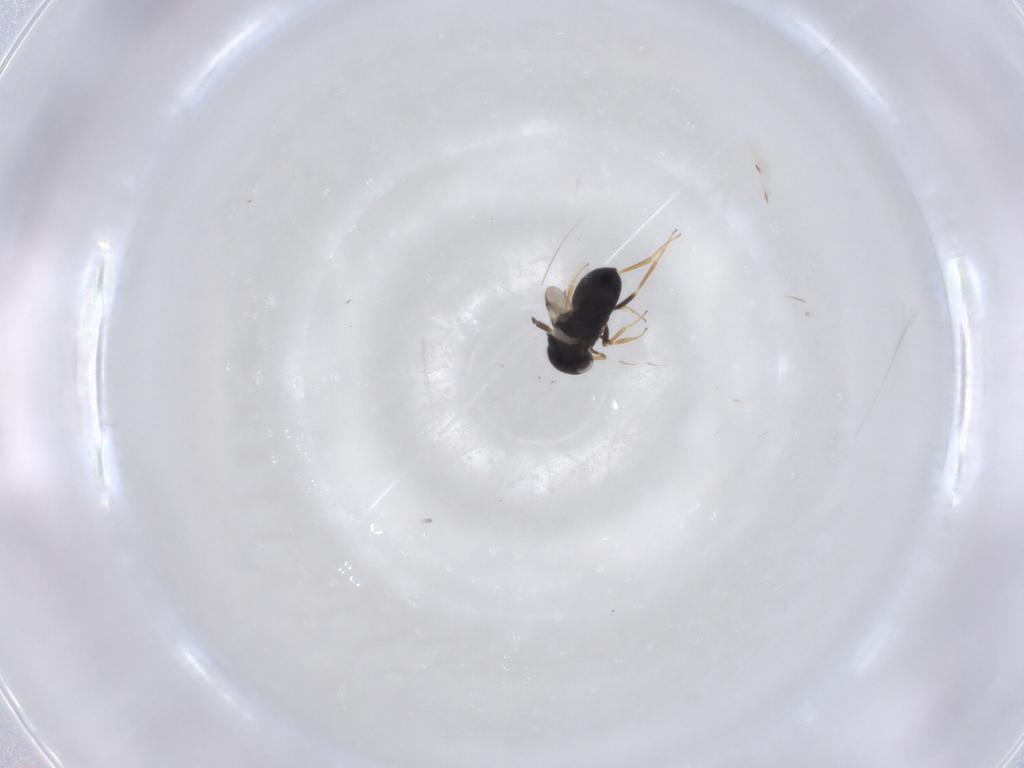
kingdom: Animalia
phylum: Arthropoda
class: Insecta
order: Hymenoptera
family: Scelionidae
